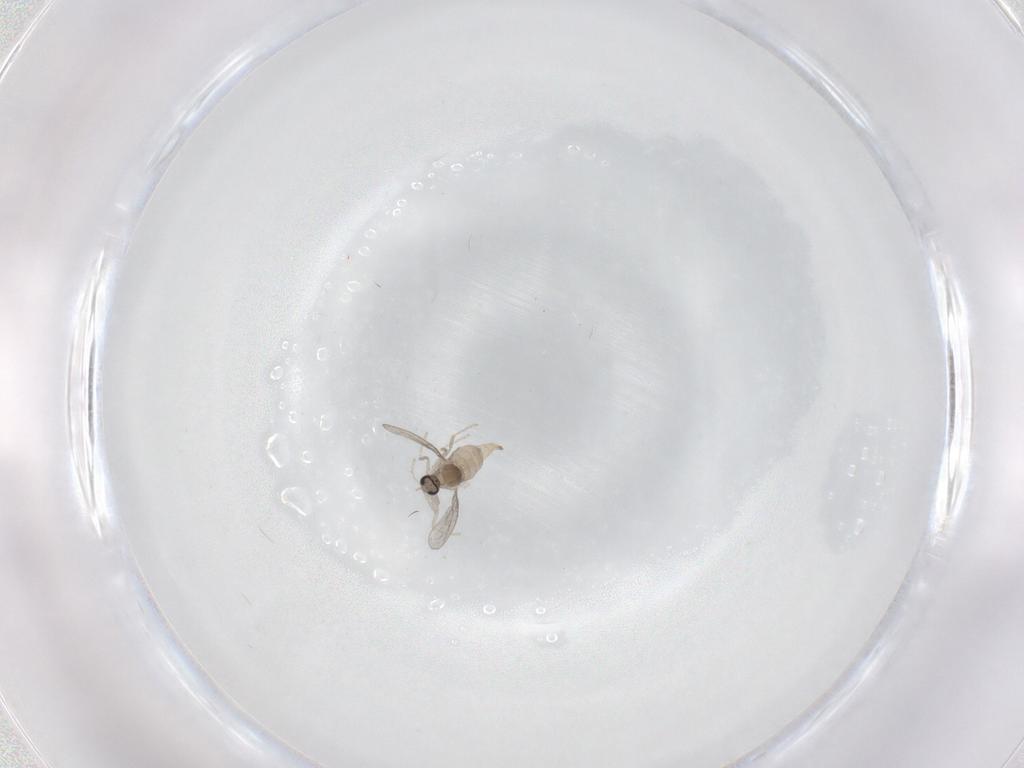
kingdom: Animalia
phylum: Arthropoda
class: Insecta
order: Diptera
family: Cecidomyiidae
